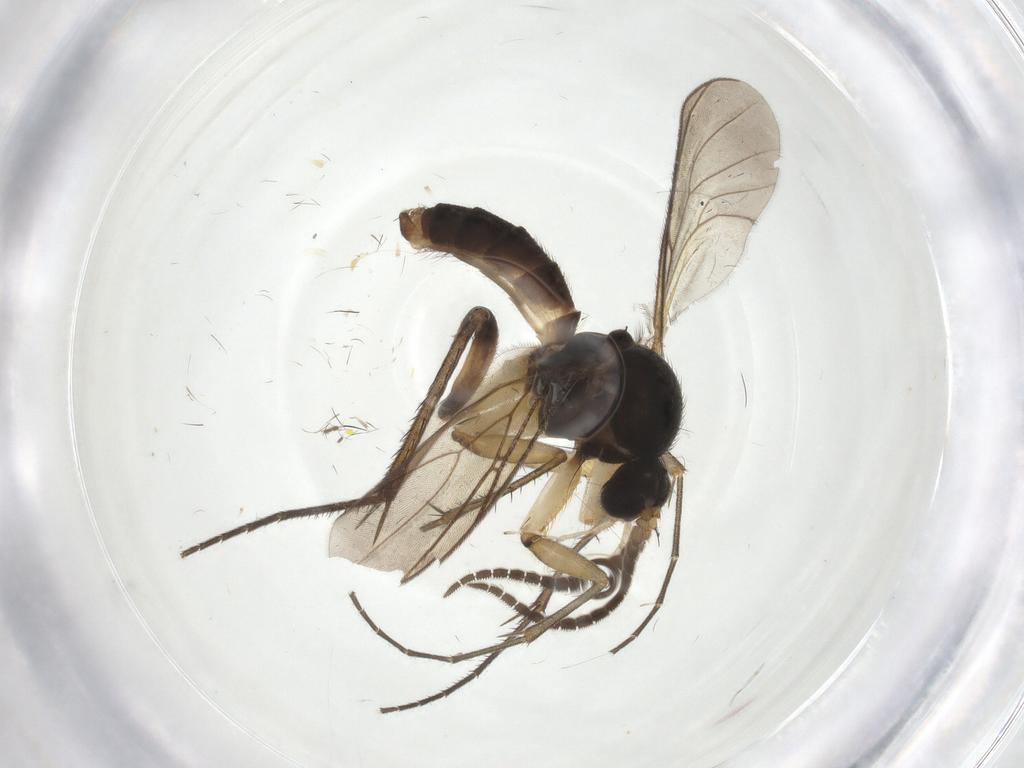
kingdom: Animalia
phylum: Arthropoda
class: Insecta
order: Diptera
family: Sciaridae
